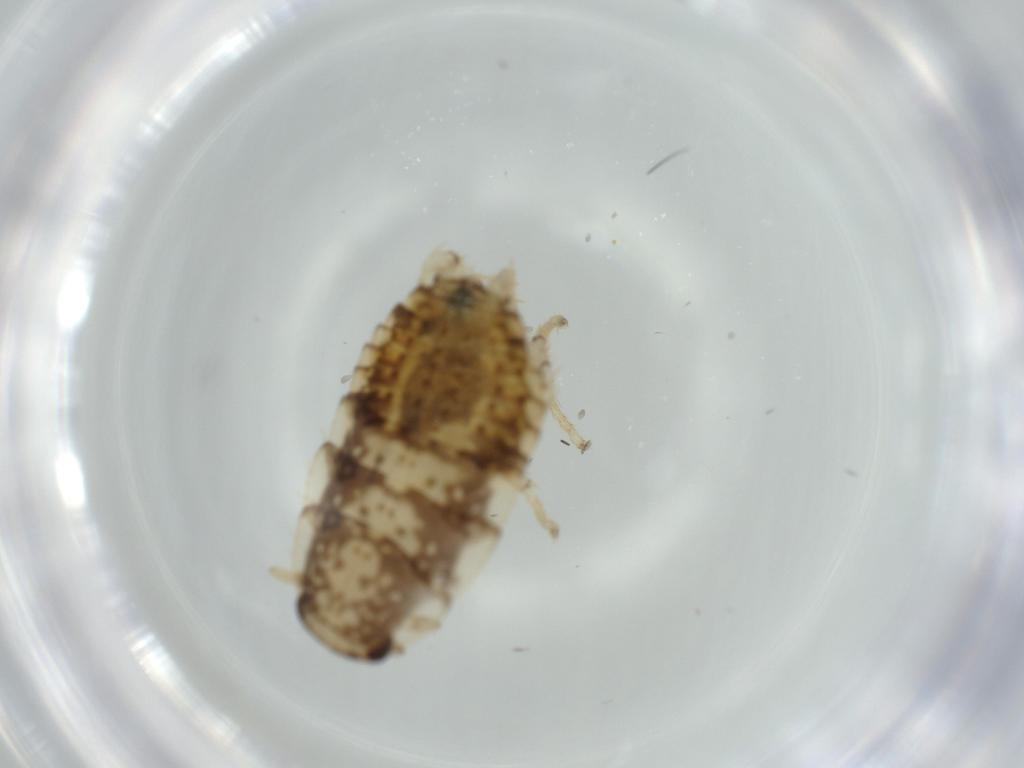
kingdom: Animalia
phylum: Arthropoda
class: Insecta
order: Blattodea
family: Ectobiidae
